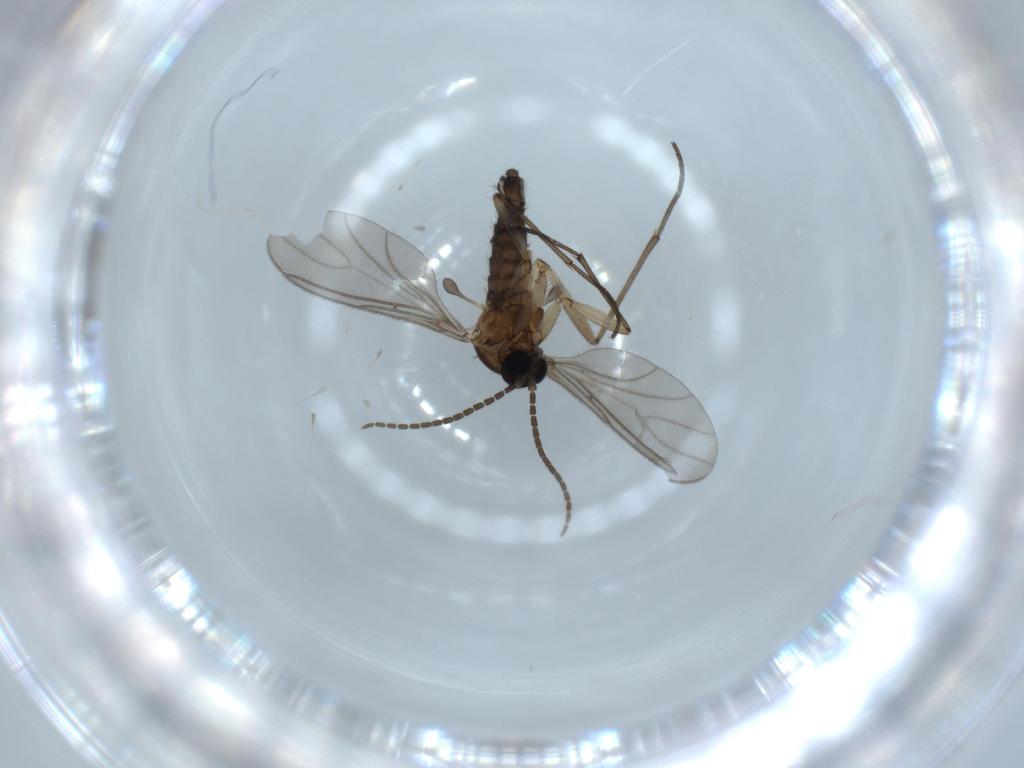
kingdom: Animalia
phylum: Arthropoda
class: Insecta
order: Diptera
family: Sciaridae
